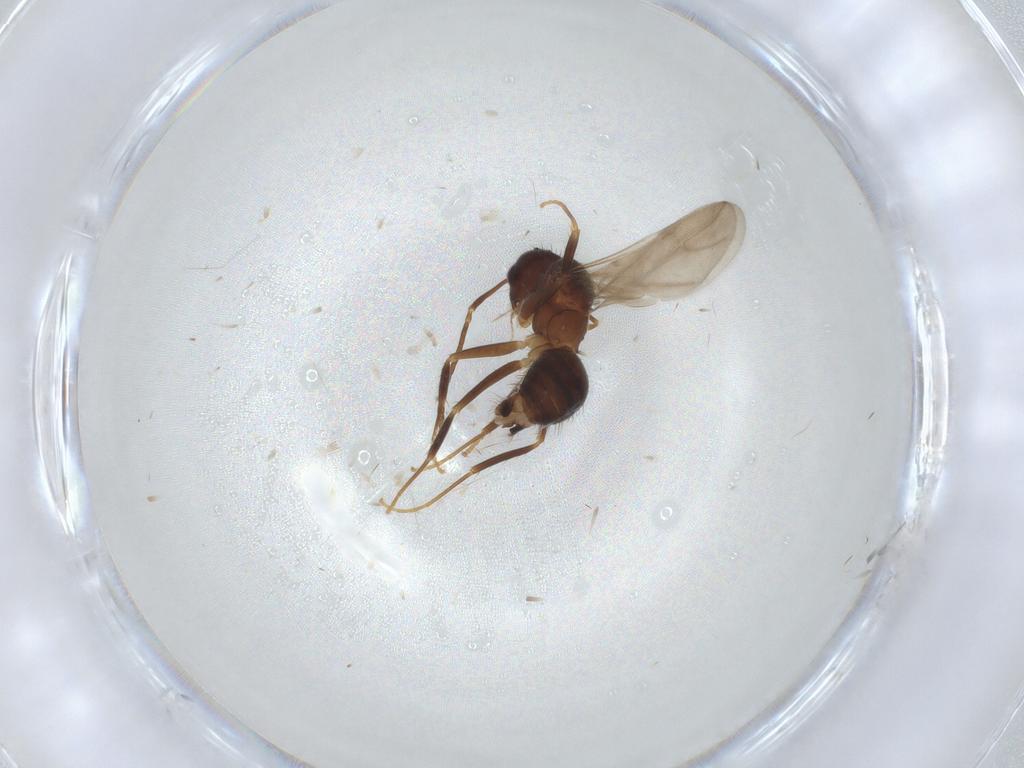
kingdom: Animalia
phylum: Arthropoda
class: Insecta
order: Hymenoptera
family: Formicidae
